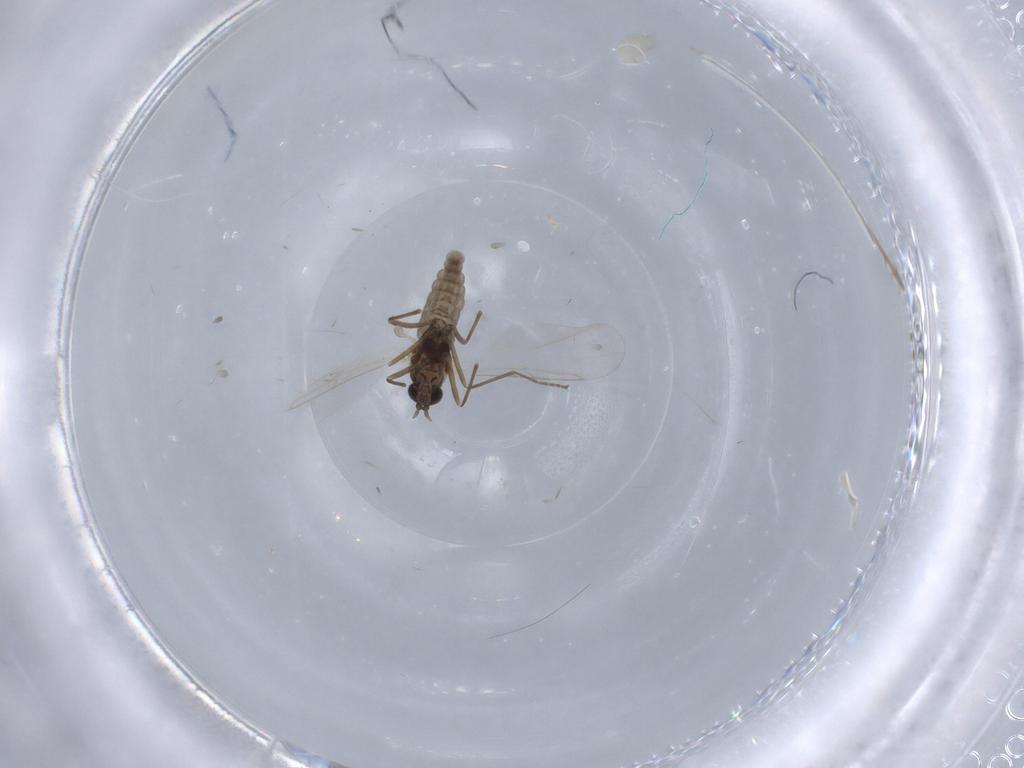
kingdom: Animalia
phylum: Arthropoda
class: Insecta
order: Diptera
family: Cecidomyiidae
